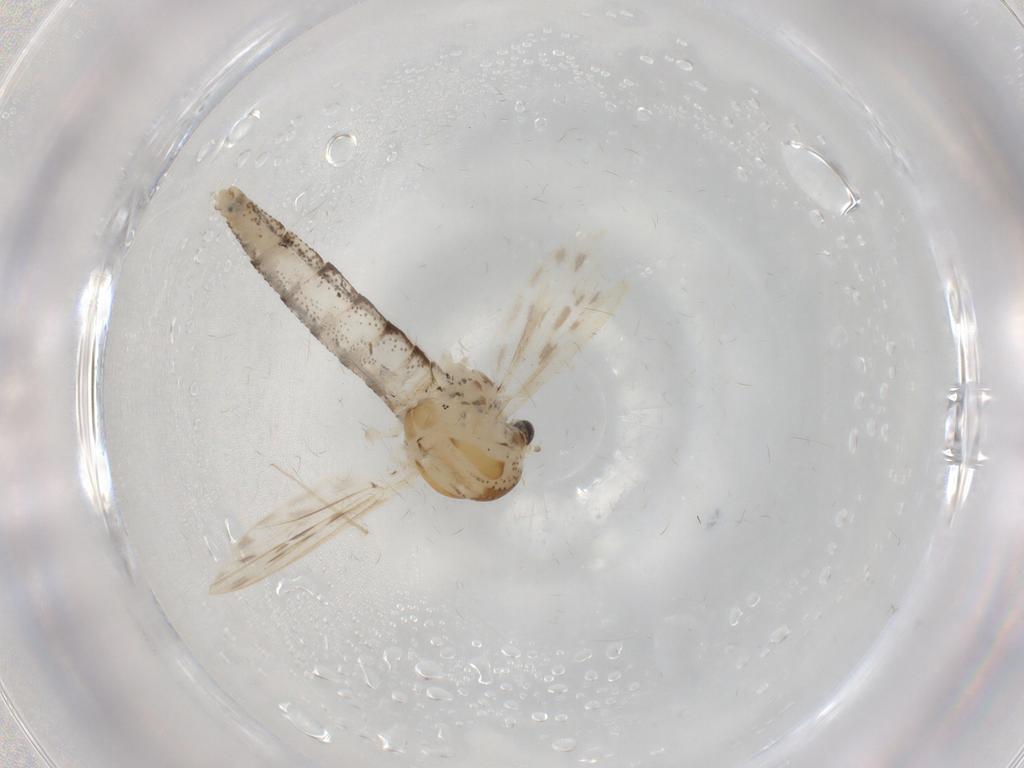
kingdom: Animalia
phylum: Arthropoda
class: Insecta
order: Diptera
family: Chaoboridae
